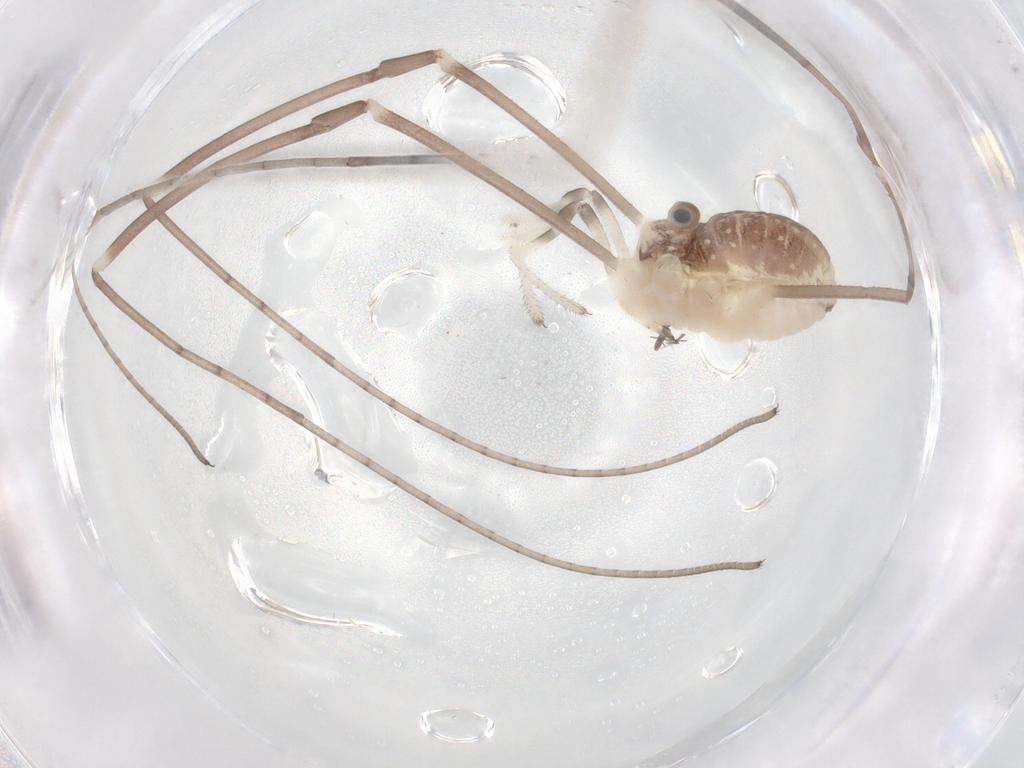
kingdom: Animalia
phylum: Arthropoda
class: Arachnida
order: Opiliones
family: Sclerosomatidae
